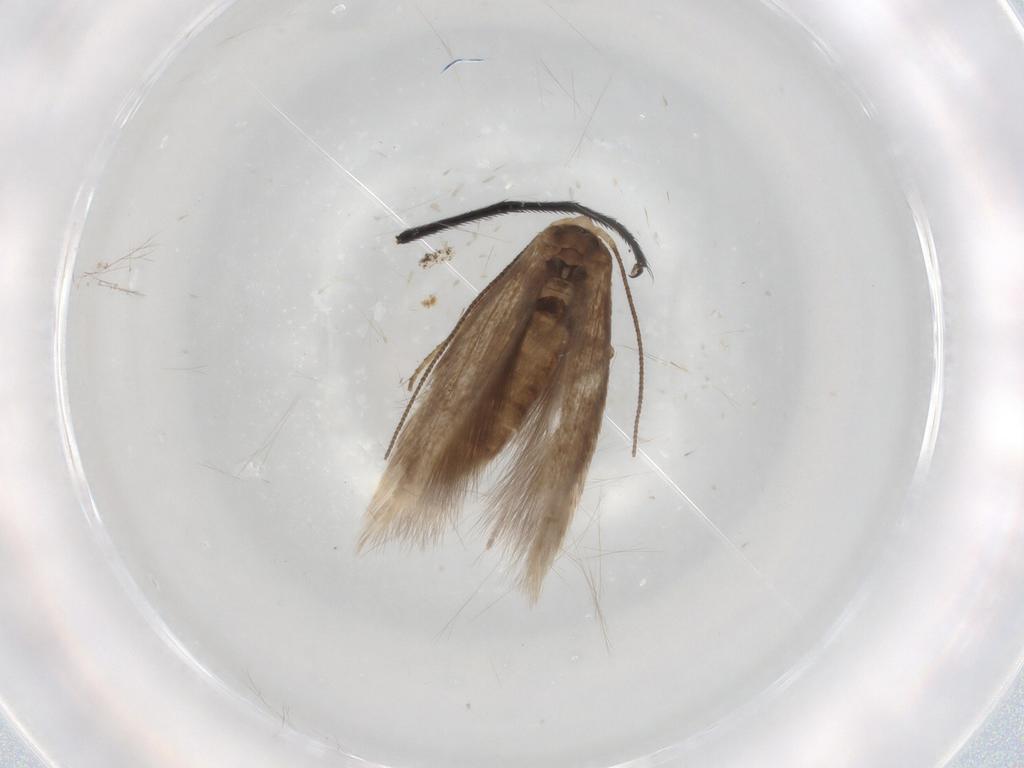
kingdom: Animalia
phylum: Arthropoda
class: Insecta
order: Lepidoptera
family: Bucculatricidae
